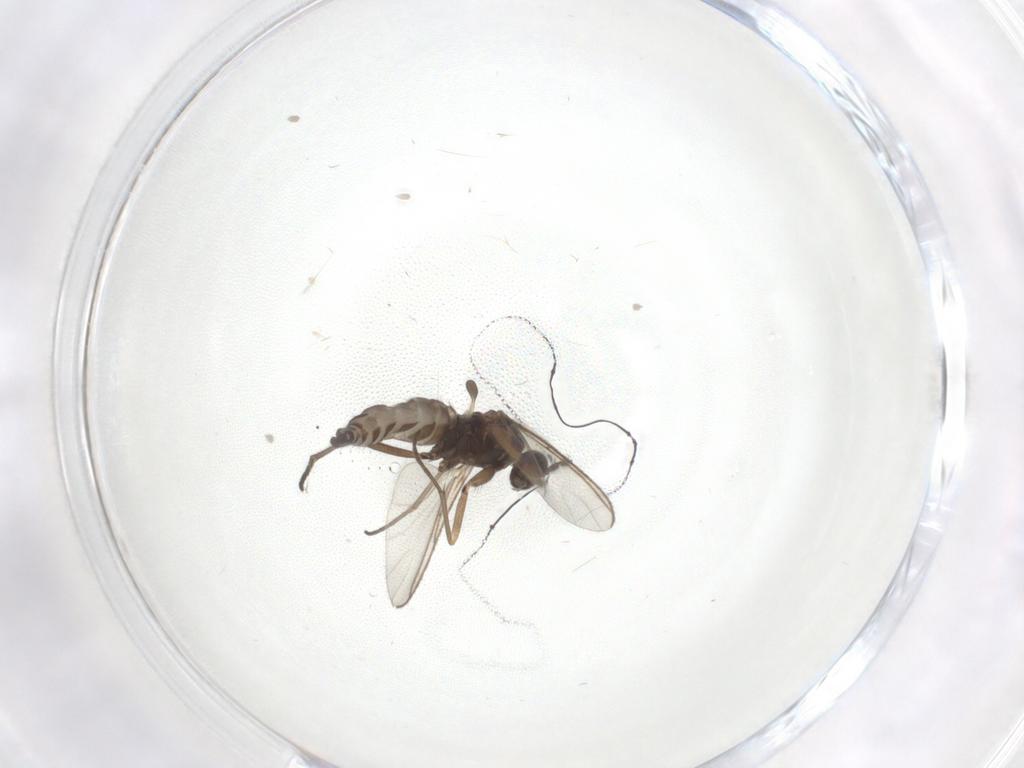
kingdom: Animalia
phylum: Arthropoda
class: Insecta
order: Diptera
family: Sciaridae
